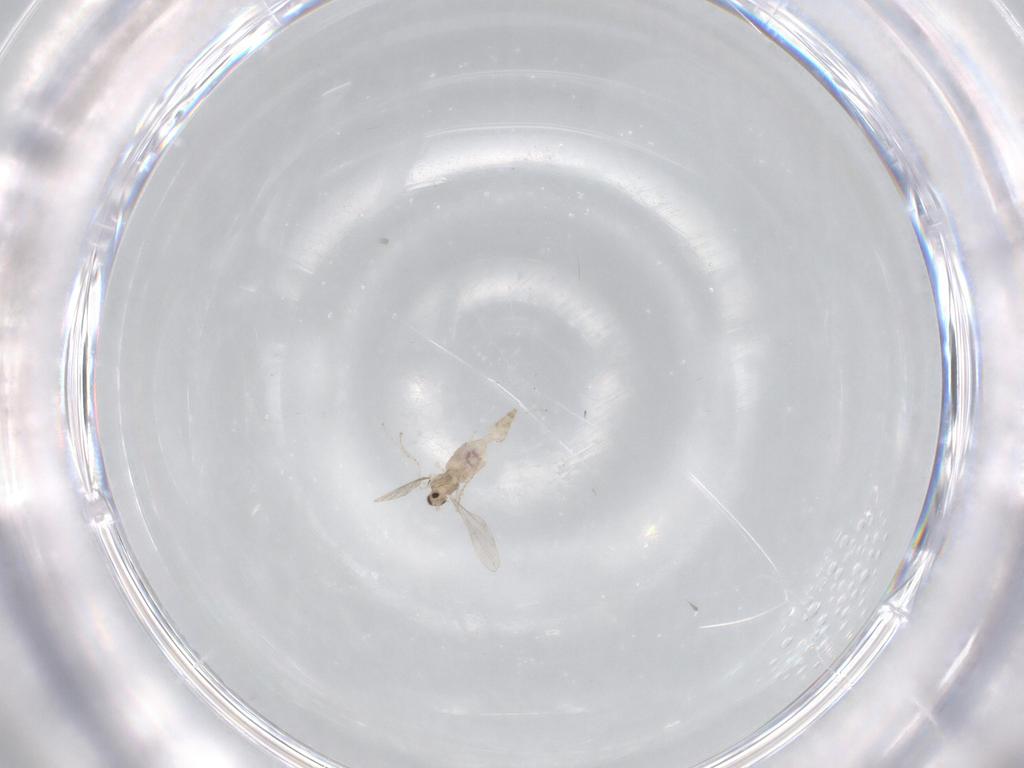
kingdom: Animalia
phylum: Arthropoda
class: Insecta
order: Diptera
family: Cecidomyiidae
